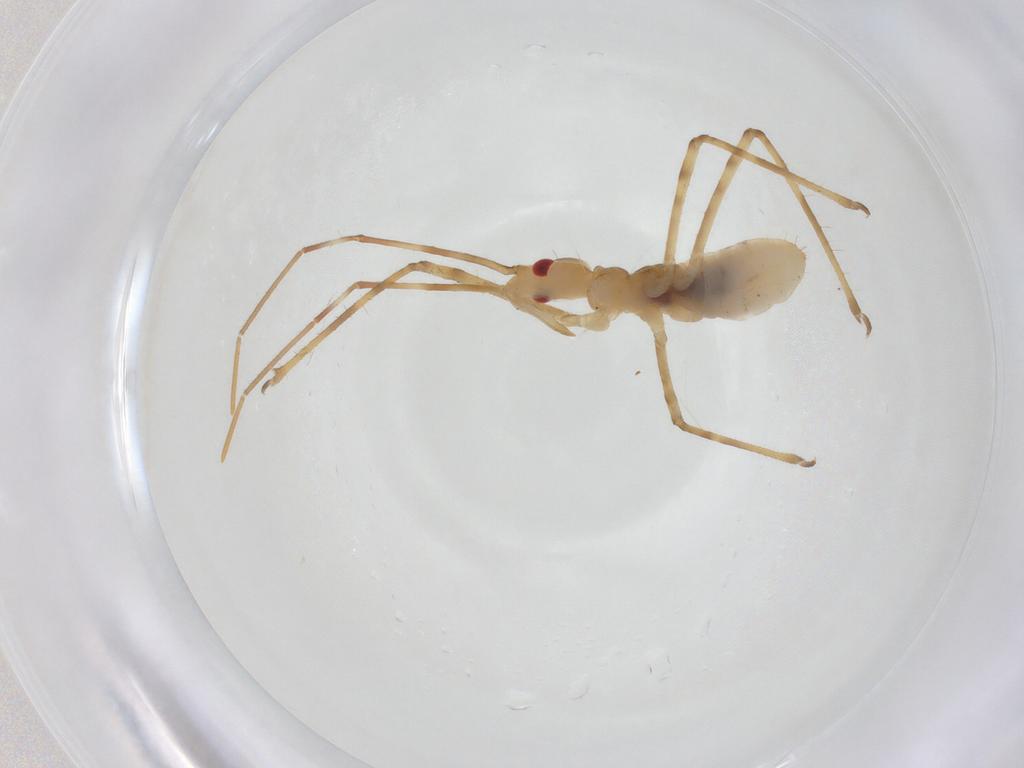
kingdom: Animalia
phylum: Arthropoda
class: Insecta
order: Hemiptera
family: Reduviidae
